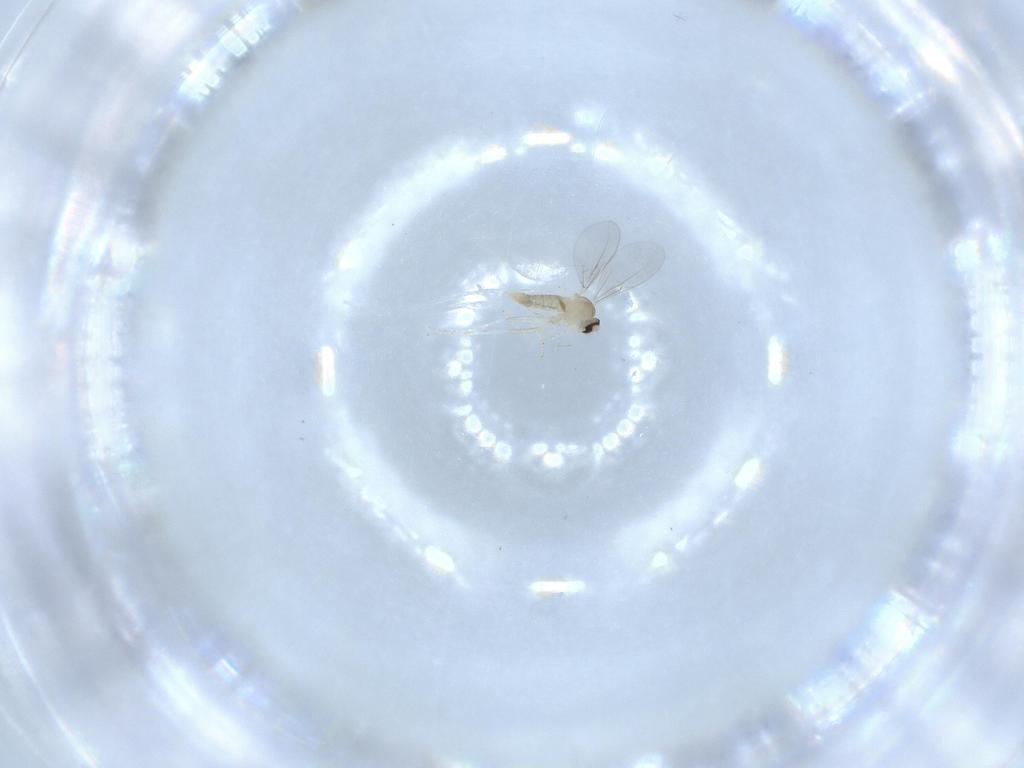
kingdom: Animalia
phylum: Arthropoda
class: Insecta
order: Diptera
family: Cecidomyiidae
